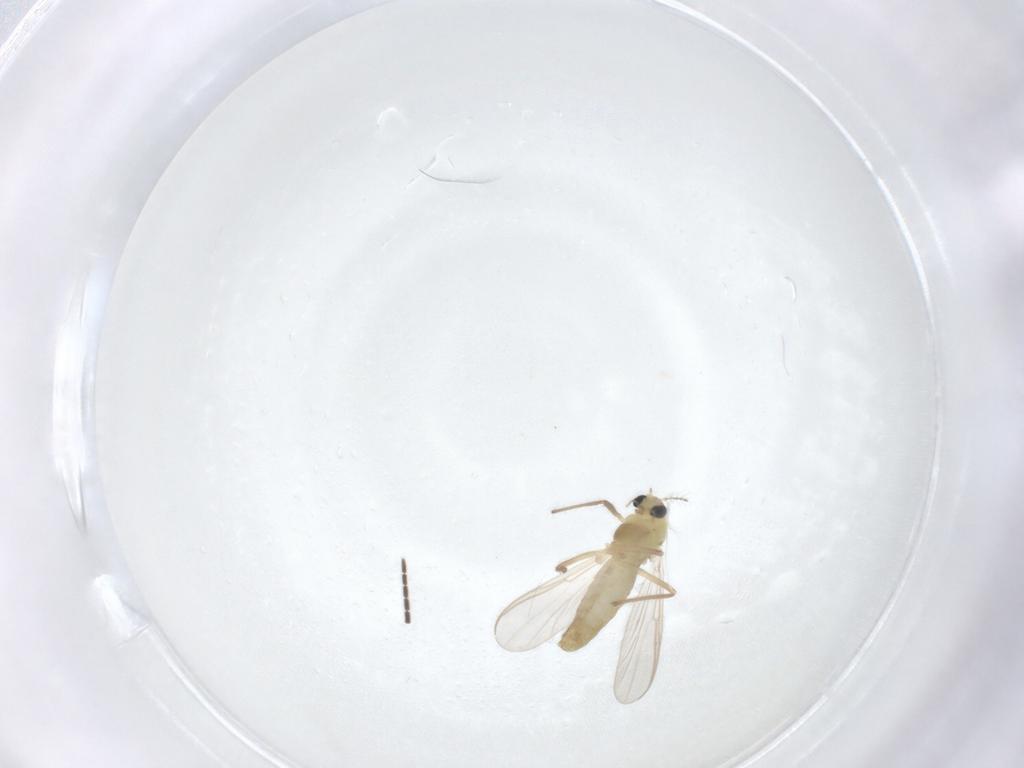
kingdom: Animalia
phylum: Arthropoda
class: Insecta
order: Diptera
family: Chironomidae
